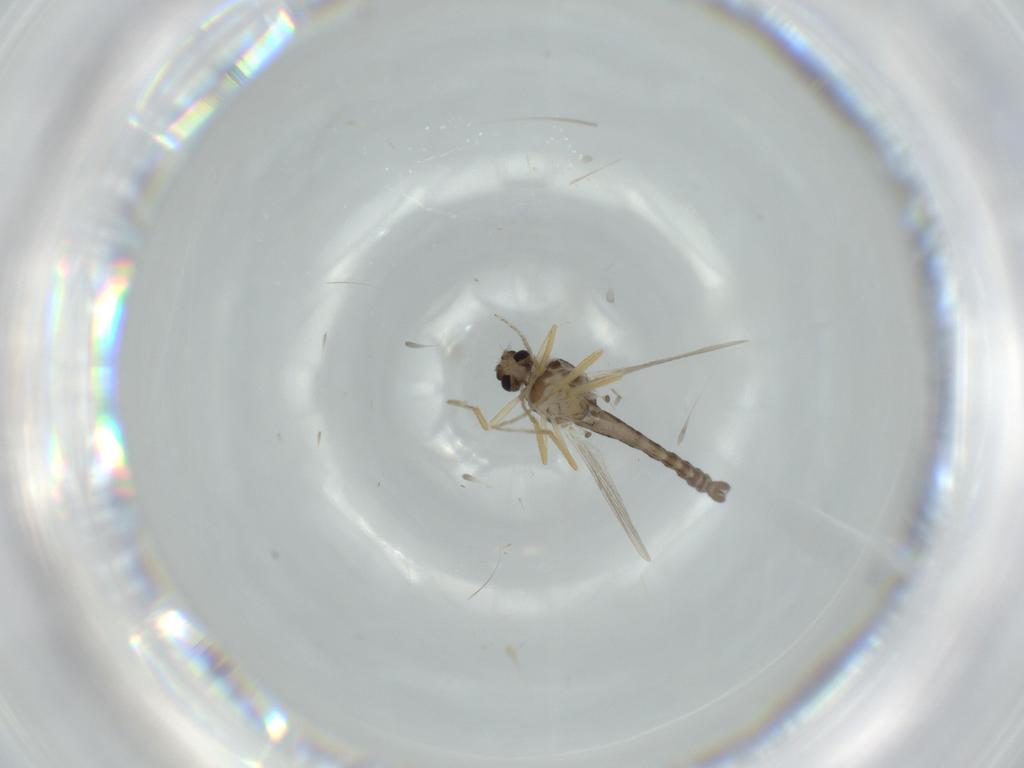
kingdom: Animalia
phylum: Arthropoda
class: Insecta
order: Diptera
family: Ceratopogonidae
